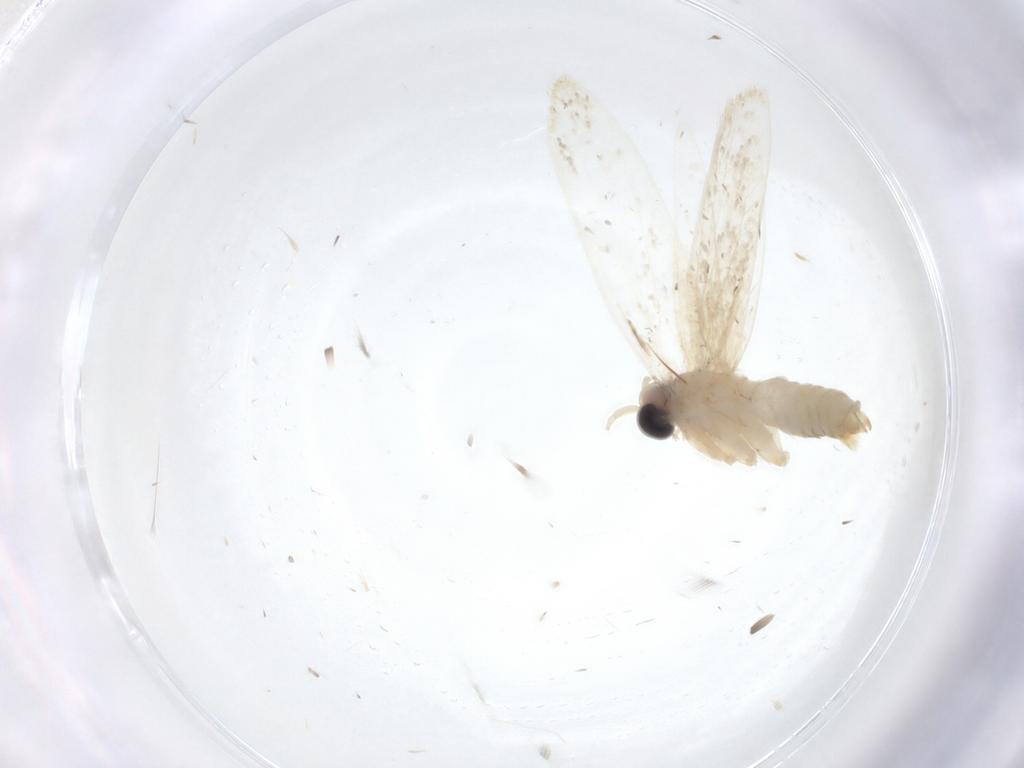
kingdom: Animalia
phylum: Arthropoda
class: Insecta
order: Lepidoptera
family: Psychidae
